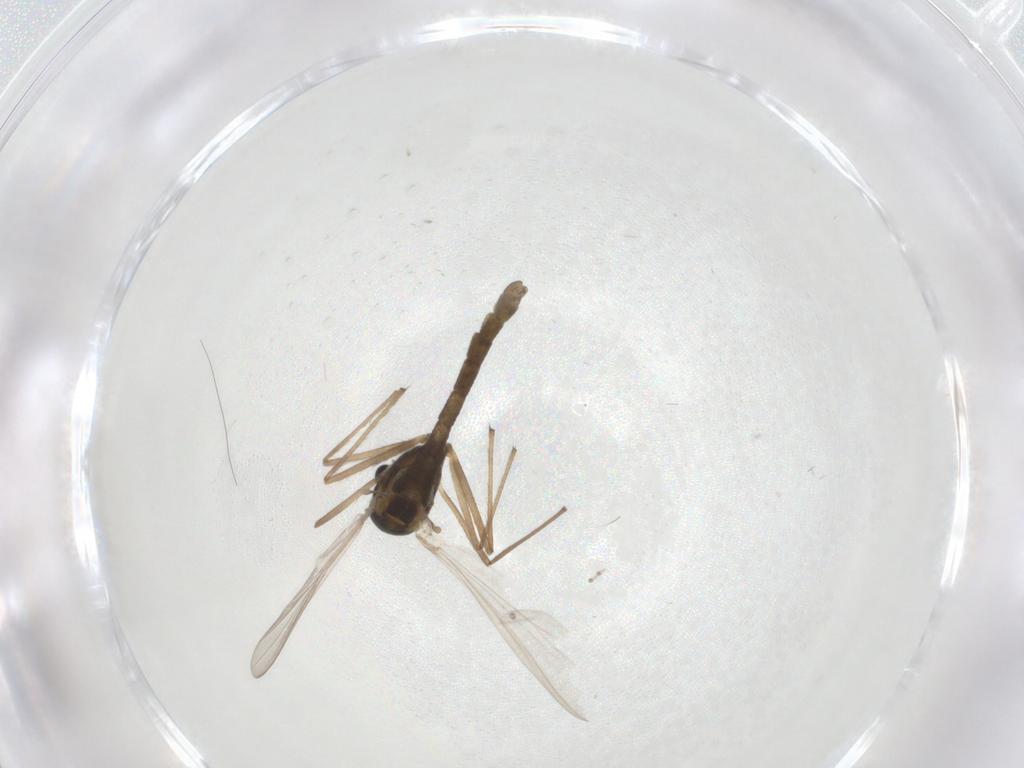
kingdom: Animalia
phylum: Arthropoda
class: Insecta
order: Diptera
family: Chironomidae
